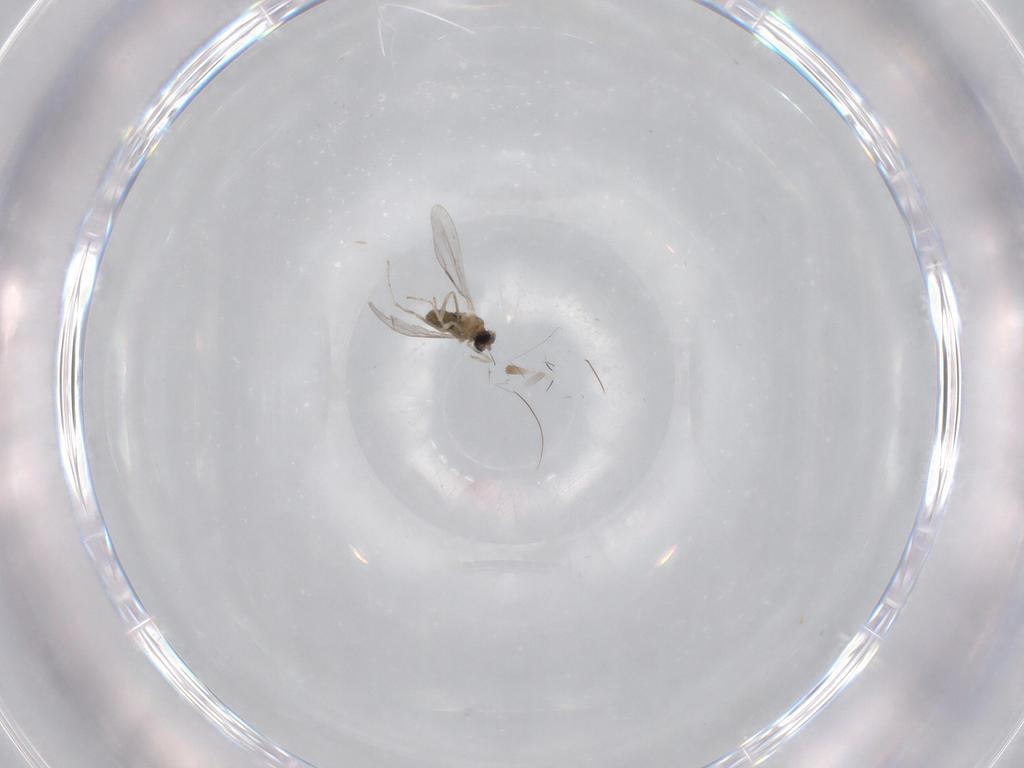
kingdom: Animalia
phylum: Arthropoda
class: Insecta
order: Diptera
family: Cecidomyiidae
